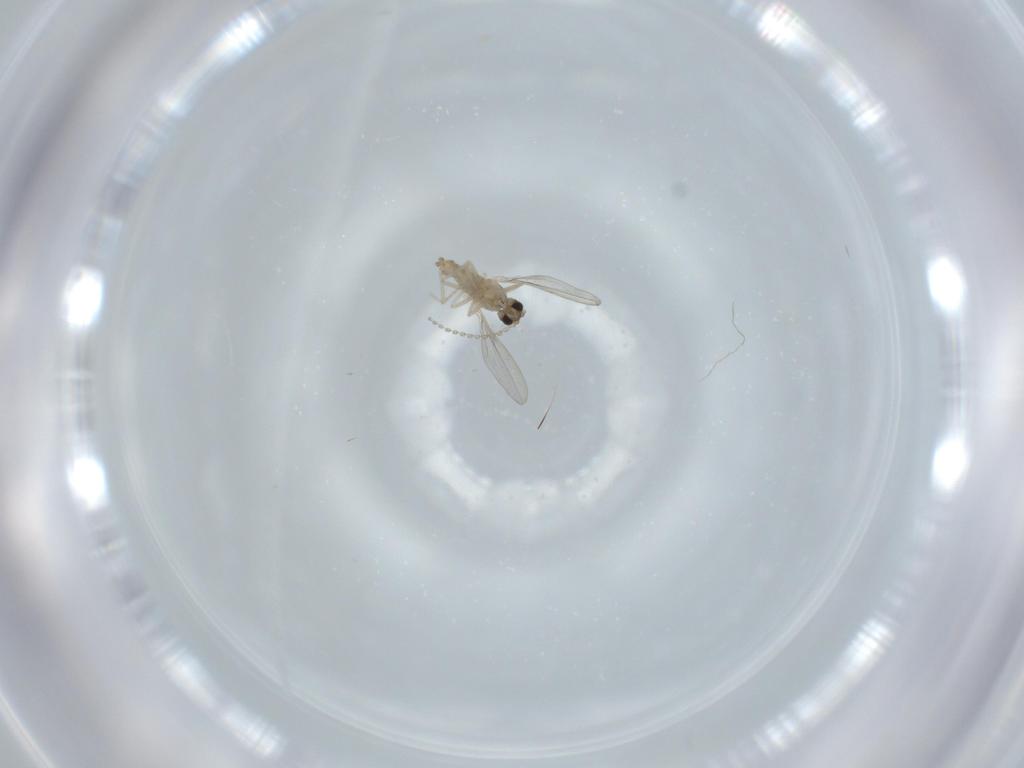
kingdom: Animalia
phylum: Arthropoda
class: Insecta
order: Diptera
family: Cecidomyiidae
